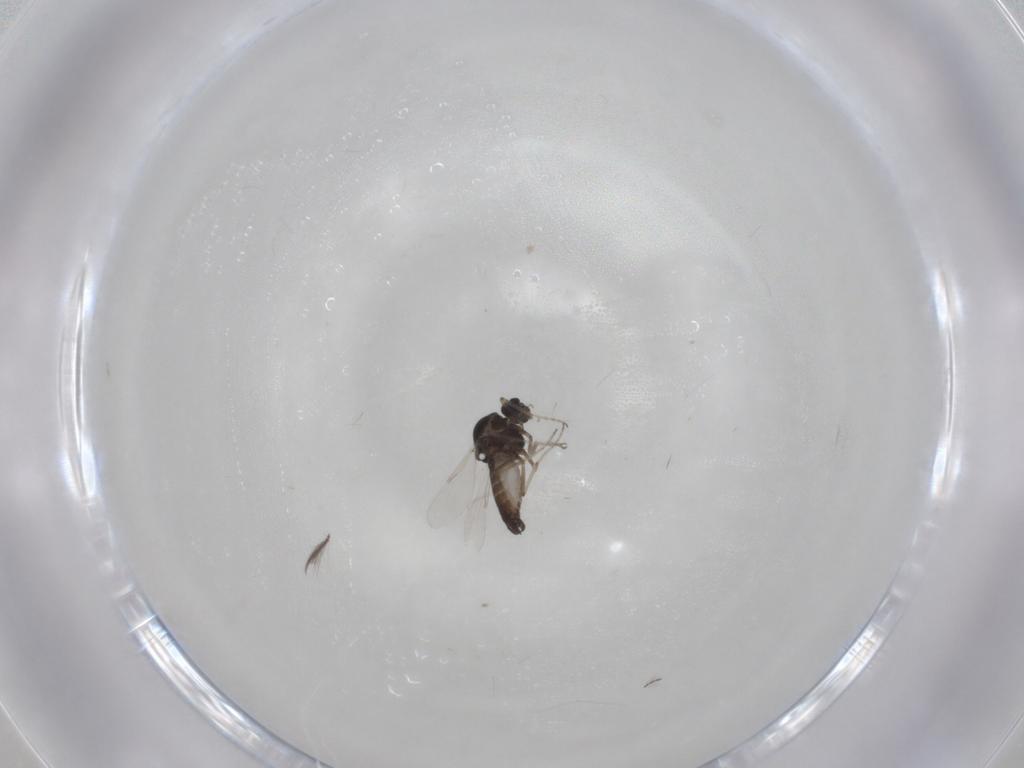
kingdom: Animalia
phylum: Arthropoda
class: Insecta
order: Diptera
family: Ceratopogonidae
